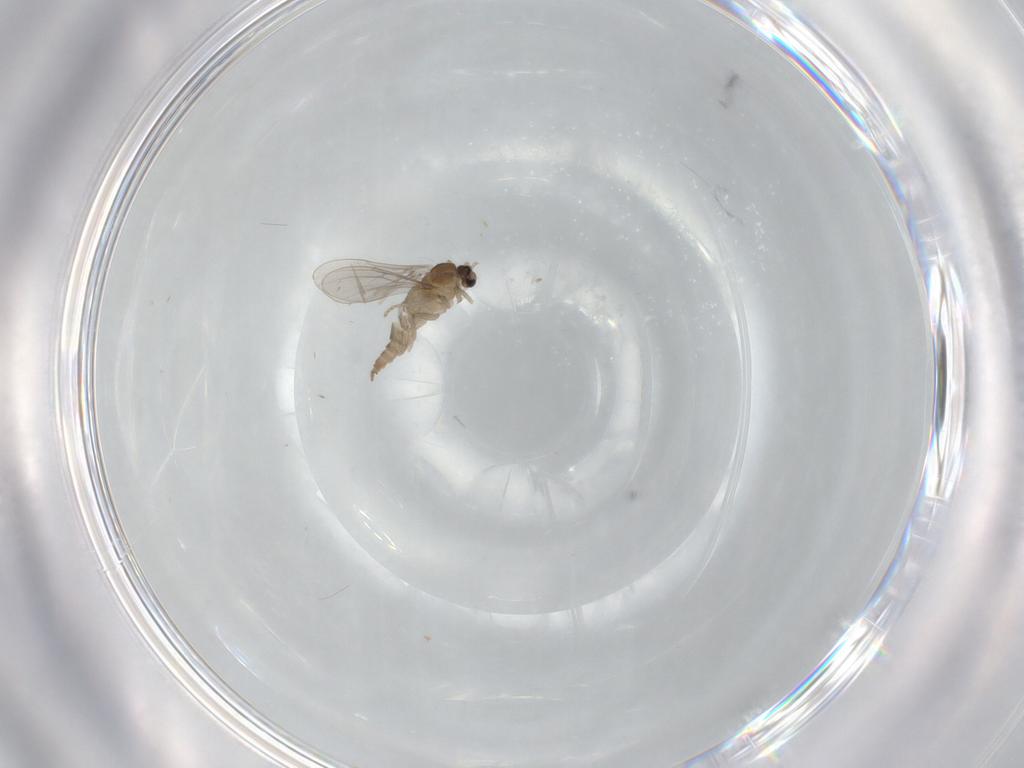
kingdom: Animalia
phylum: Arthropoda
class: Insecta
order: Diptera
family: Cecidomyiidae
